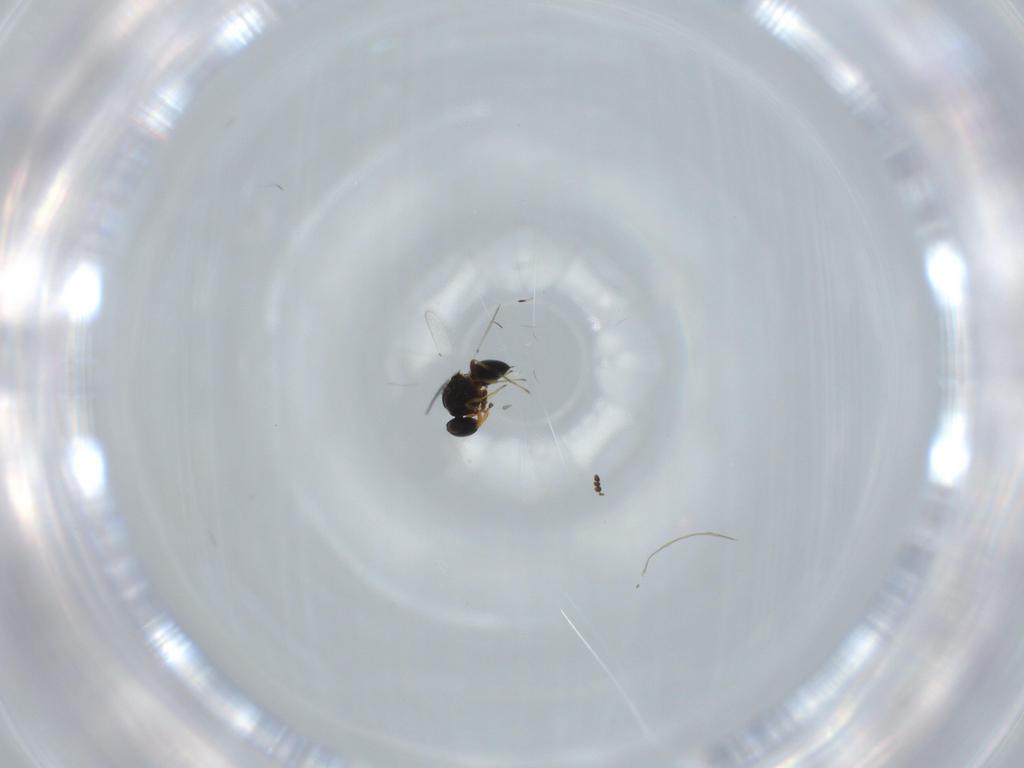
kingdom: Animalia
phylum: Arthropoda
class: Insecta
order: Hymenoptera
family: Platygastridae
